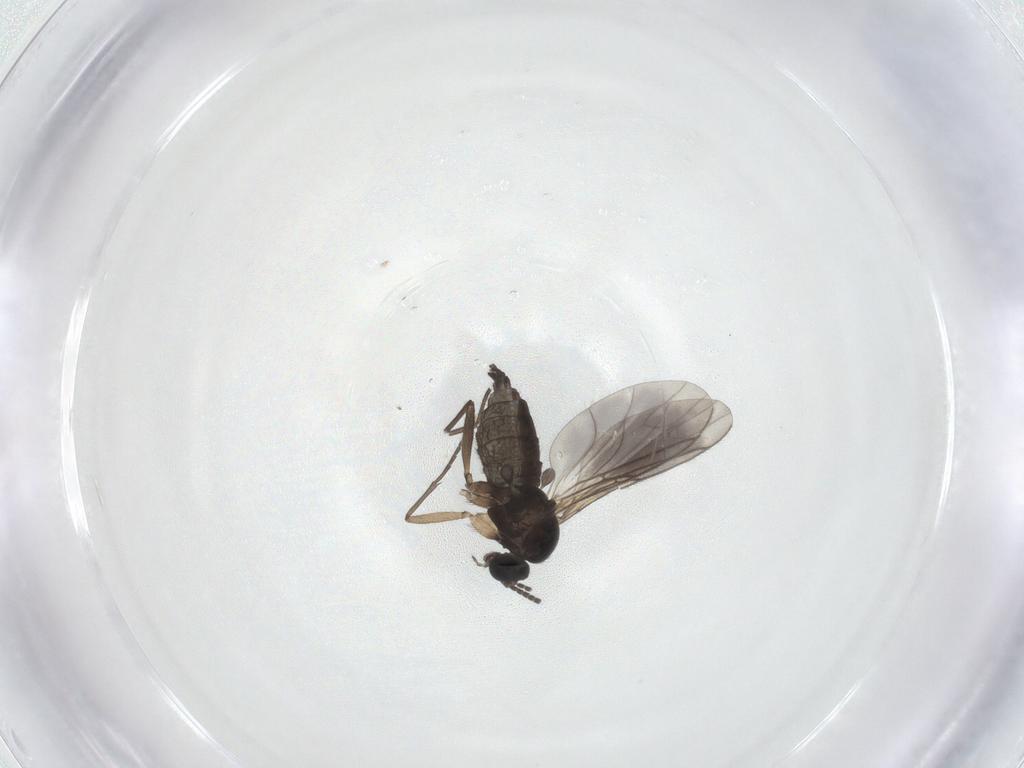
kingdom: Animalia
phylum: Arthropoda
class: Insecta
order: Diptera
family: Sciaridae
